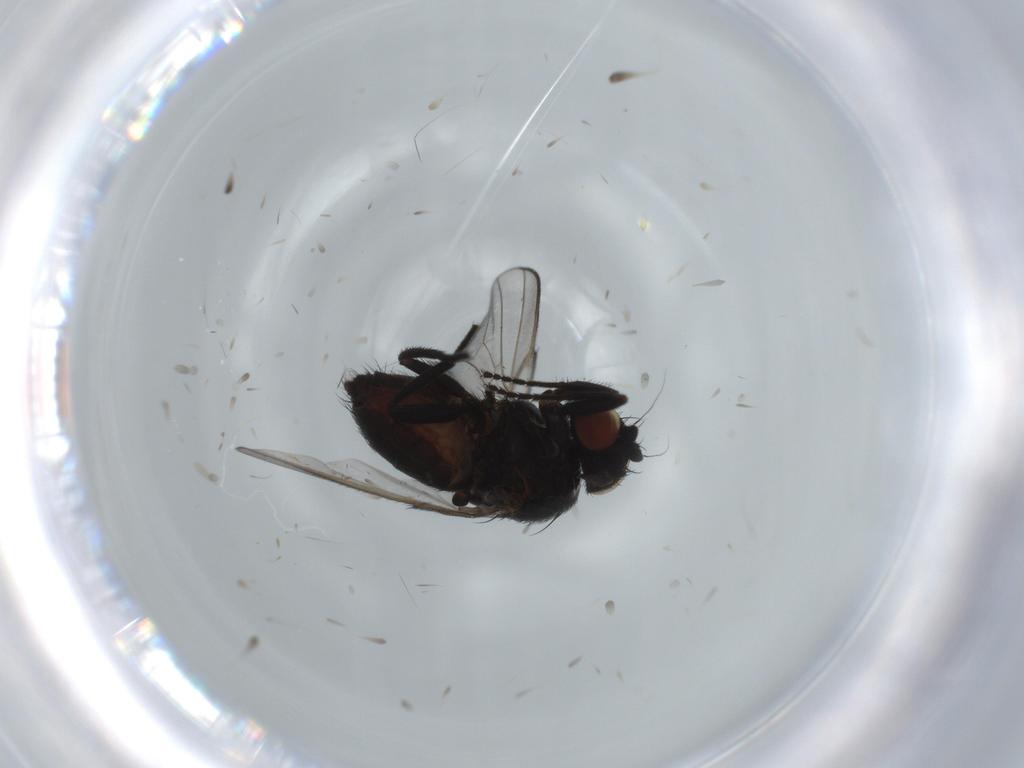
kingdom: Animalia
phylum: Arthropoda
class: Insecta
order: Diptera
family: Milichiidae
